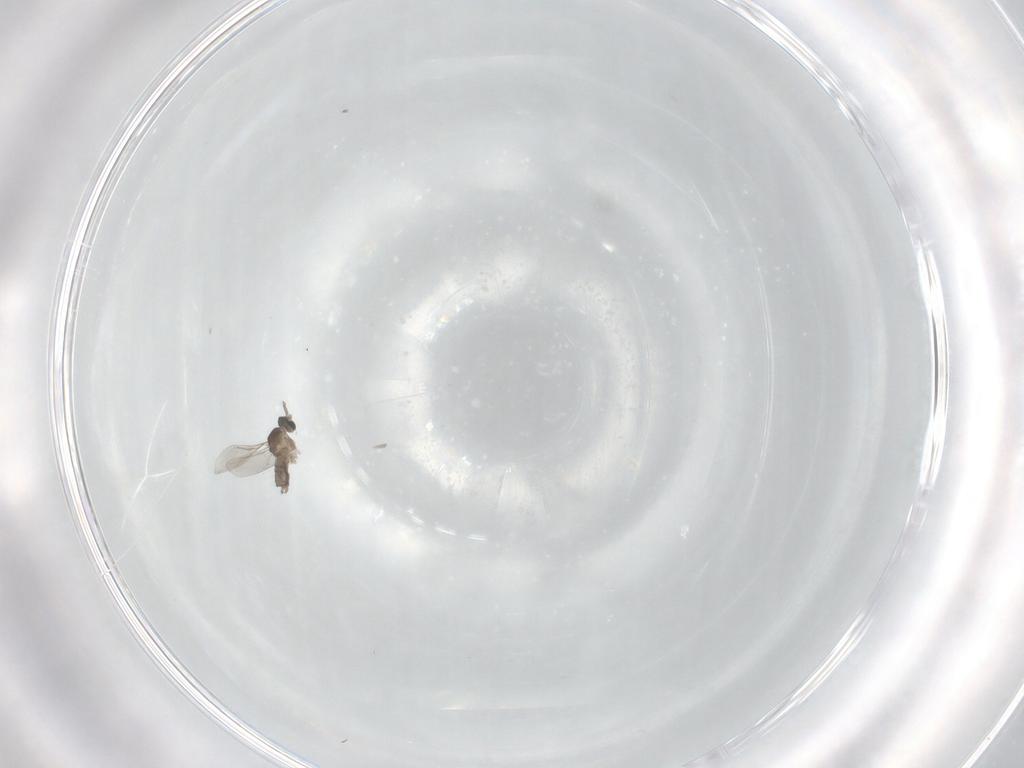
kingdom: Animalia
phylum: Arthropoda
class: Insecta
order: Diptera
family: Cecidomyiidae
